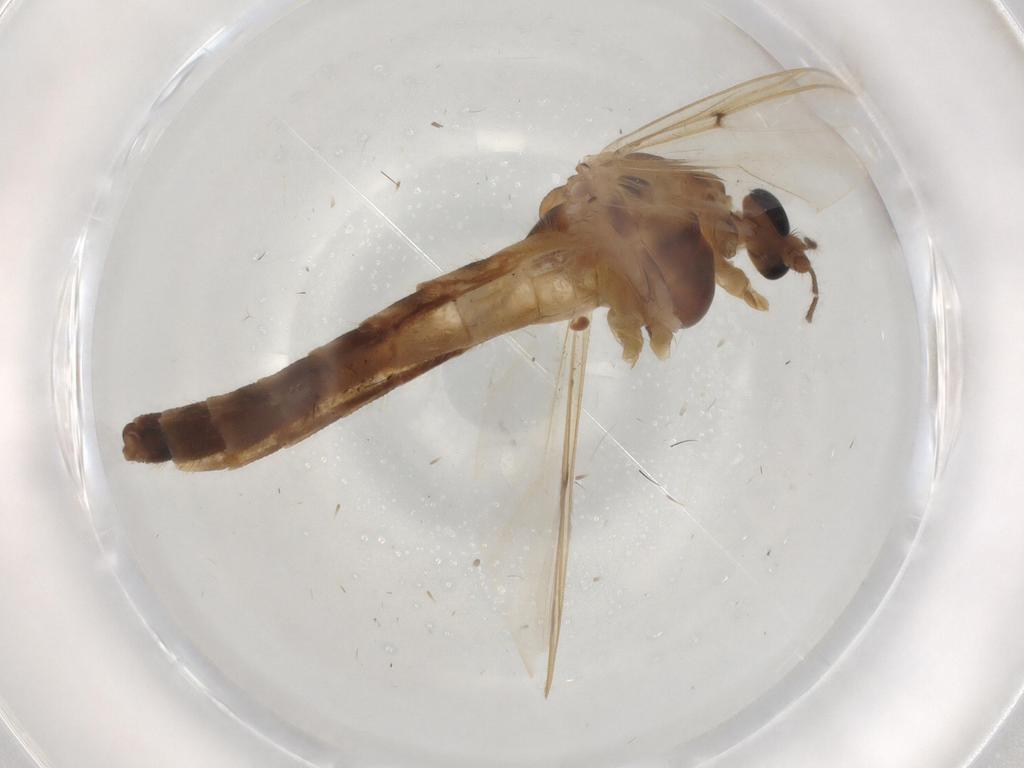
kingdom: Animalia
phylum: Arthropoda
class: Insecta
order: Diptera
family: Chironomidae
